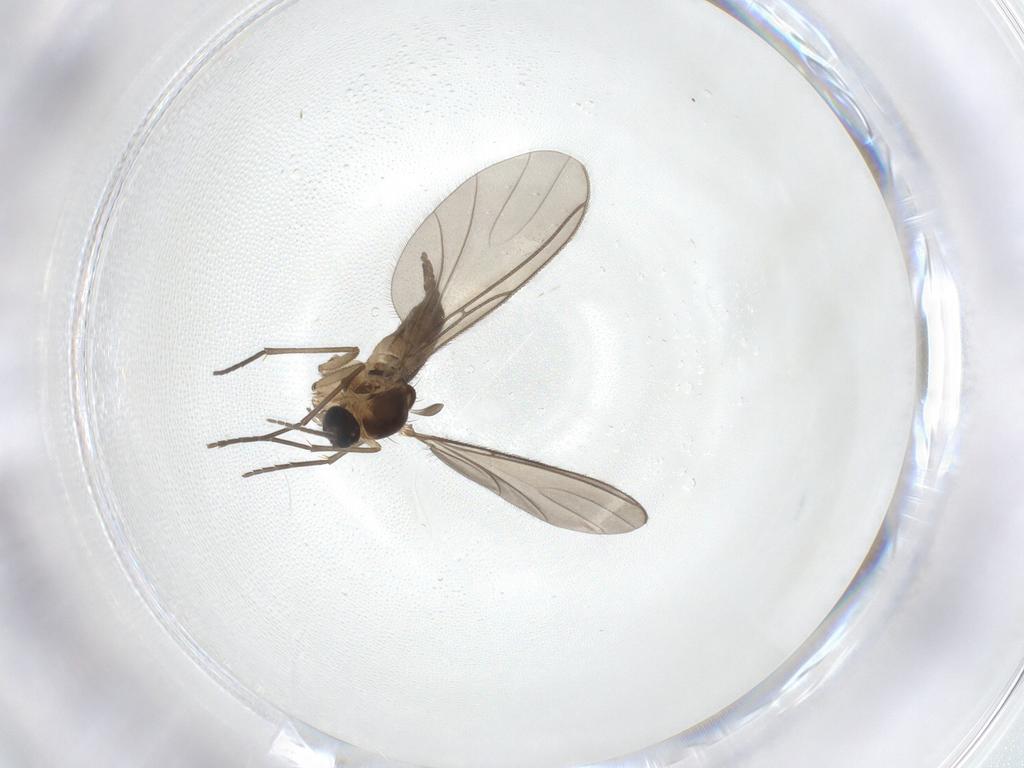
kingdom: Animalia
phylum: Arthropoda
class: Insecta
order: Diptera
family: Sciaridae
